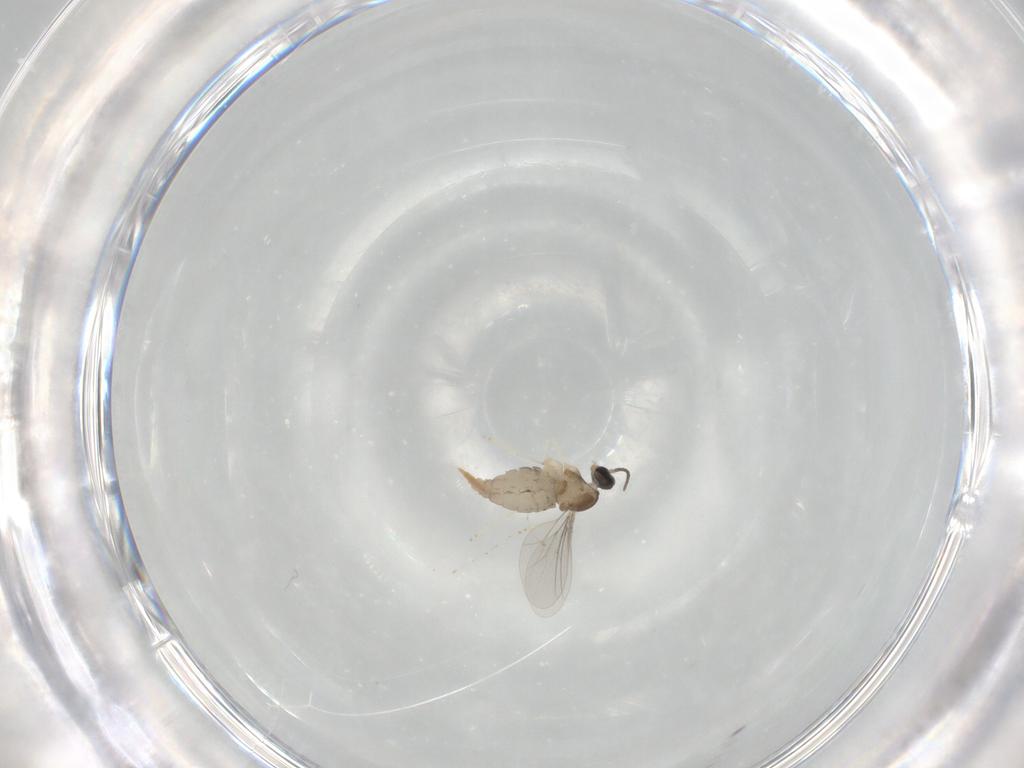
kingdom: Animalia
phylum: Arthropoda
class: Insecta
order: Diptera
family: Cecidomyiidae
